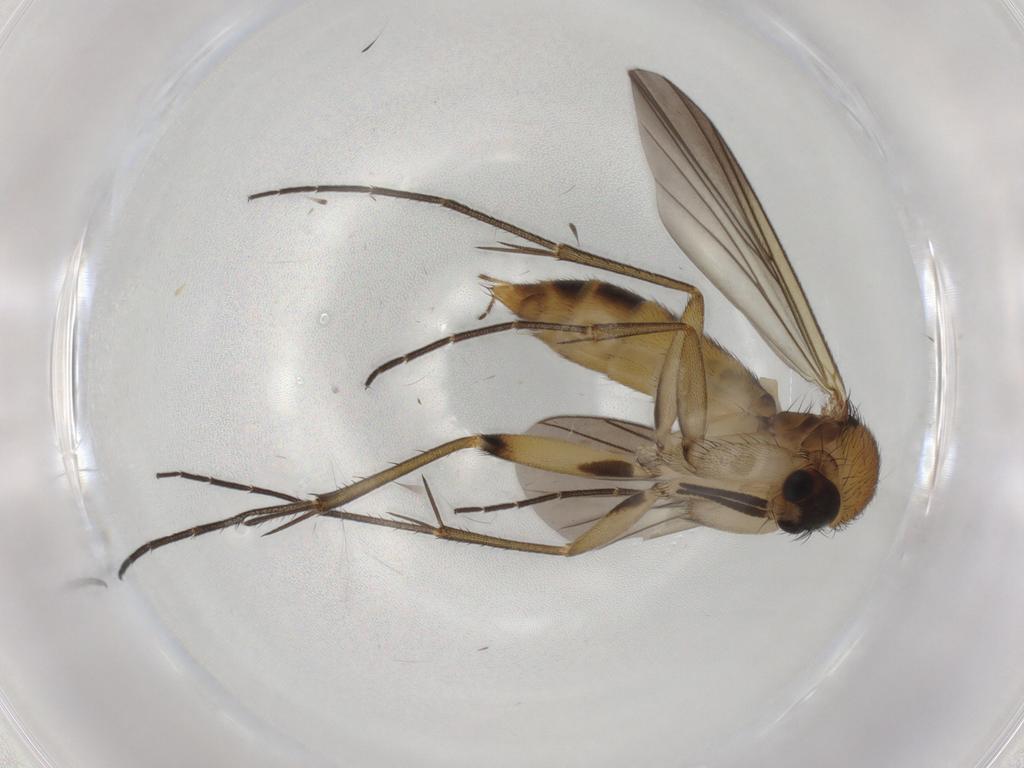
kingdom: Animalia
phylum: Arthropoda
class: Insecta
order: Diptera
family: Mycetophilidae
